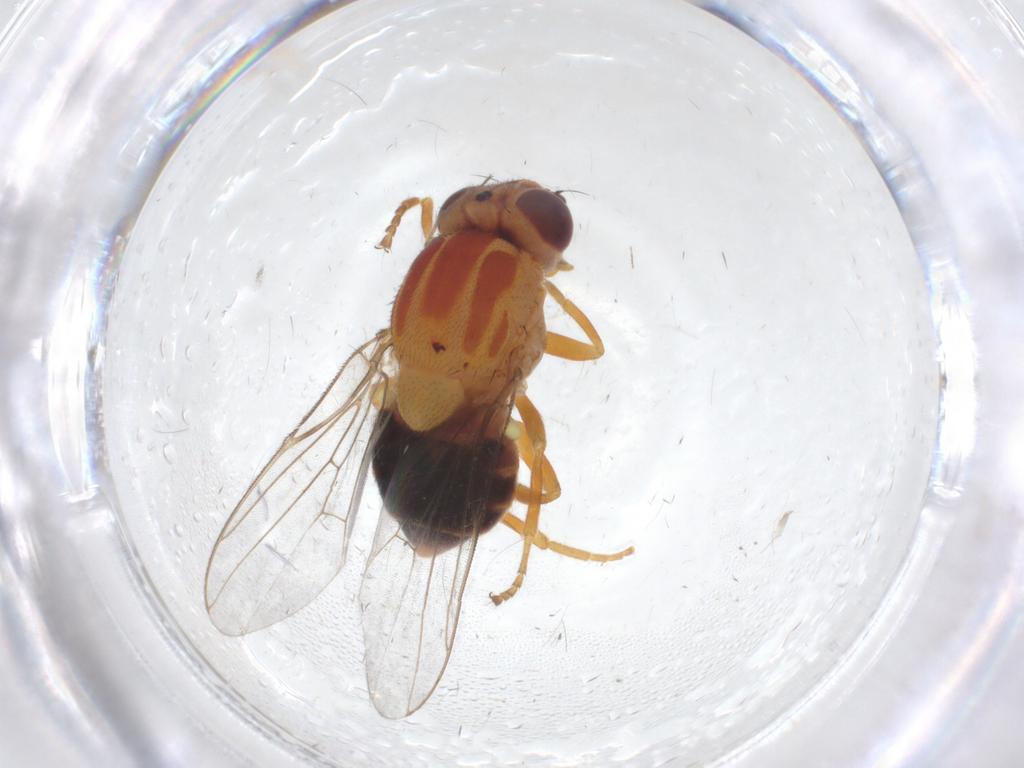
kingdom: Animalia
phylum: Arthropoda
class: Insecta
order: Diptera
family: Chloropidae
